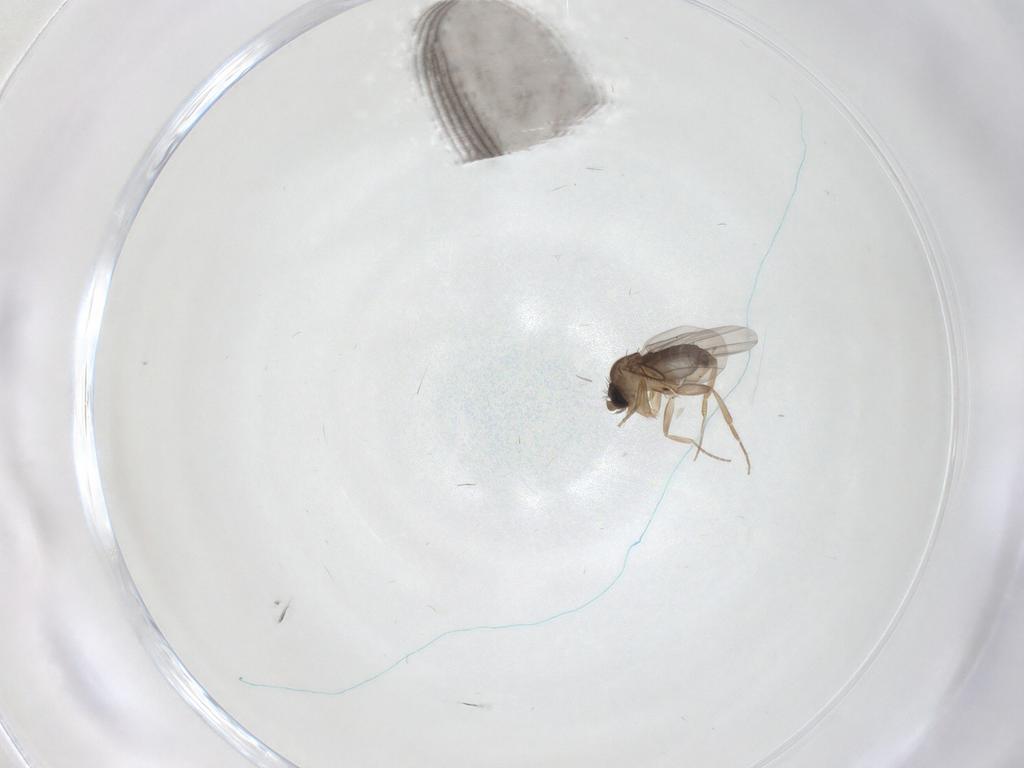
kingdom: Animalia
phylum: Arthropoda
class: Insecta
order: Diptera
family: Phoridae
